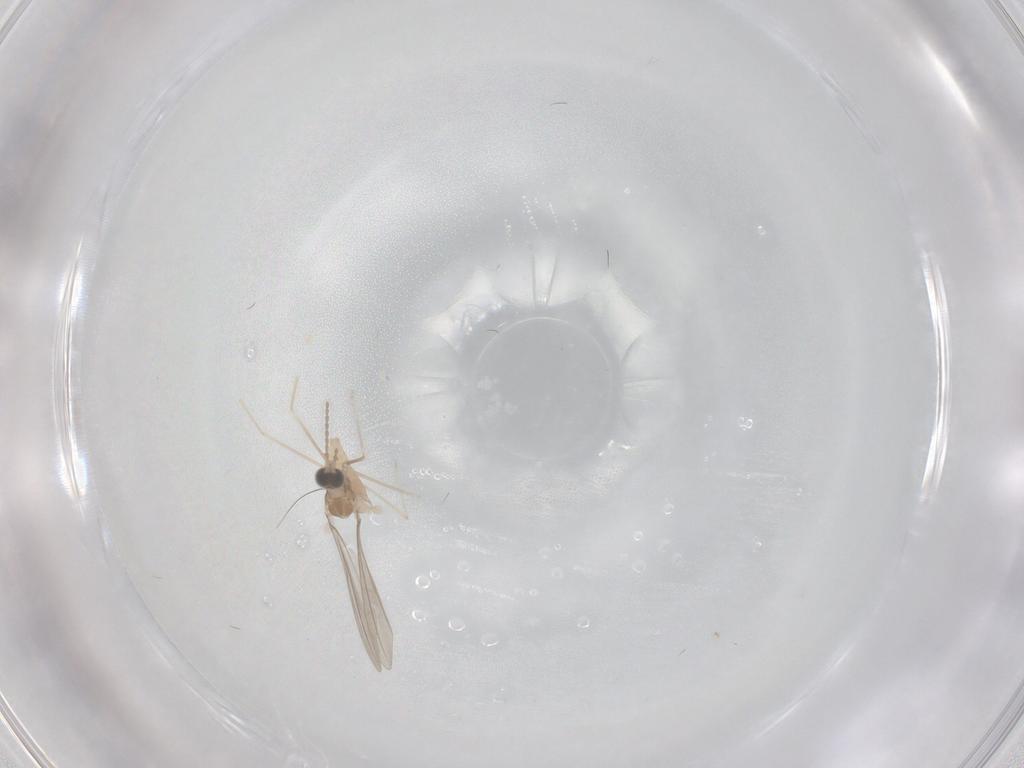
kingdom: Animalia
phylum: Arthropoda
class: Insecta
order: Diptera
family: Cecidomyiidae
